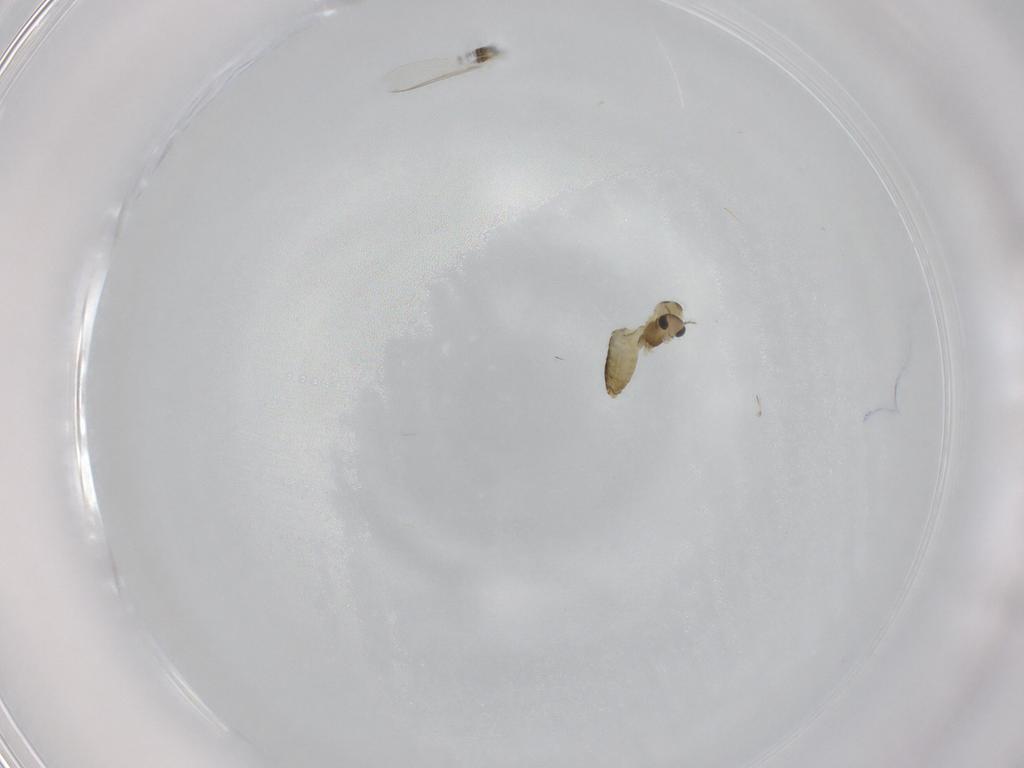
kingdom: Animalia
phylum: Arthropoda
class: Insecta
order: Diptera
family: Chironomidae
